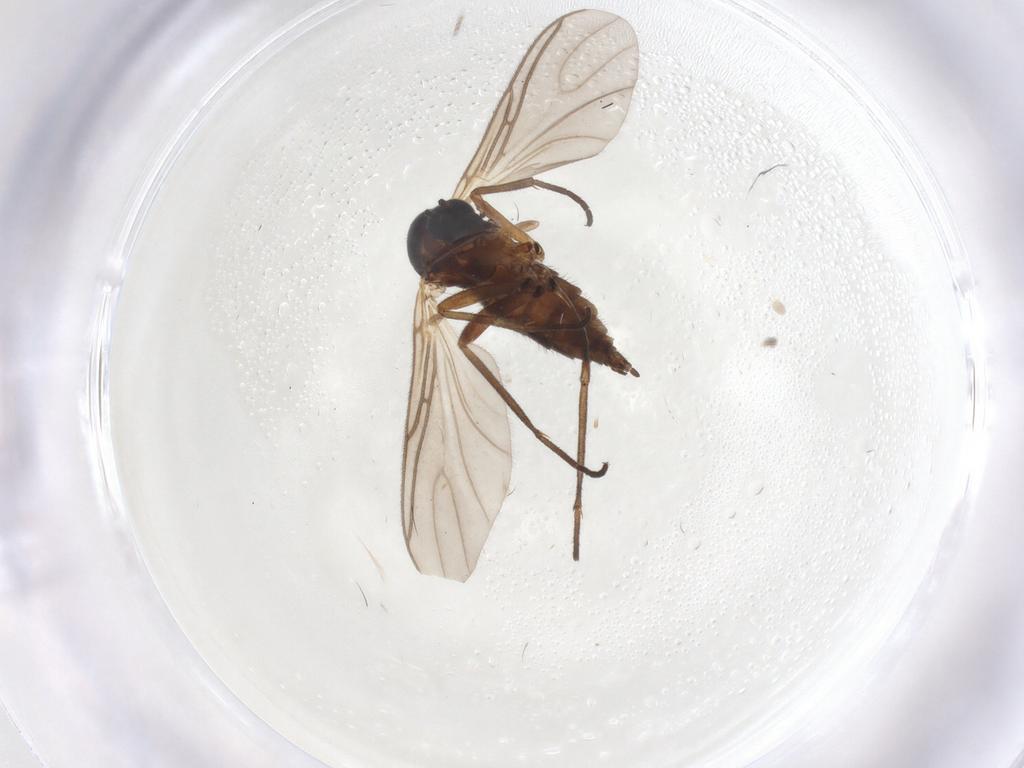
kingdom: Animalia
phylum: Arthropoda
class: Insecta
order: Diptera
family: Sciaridae
